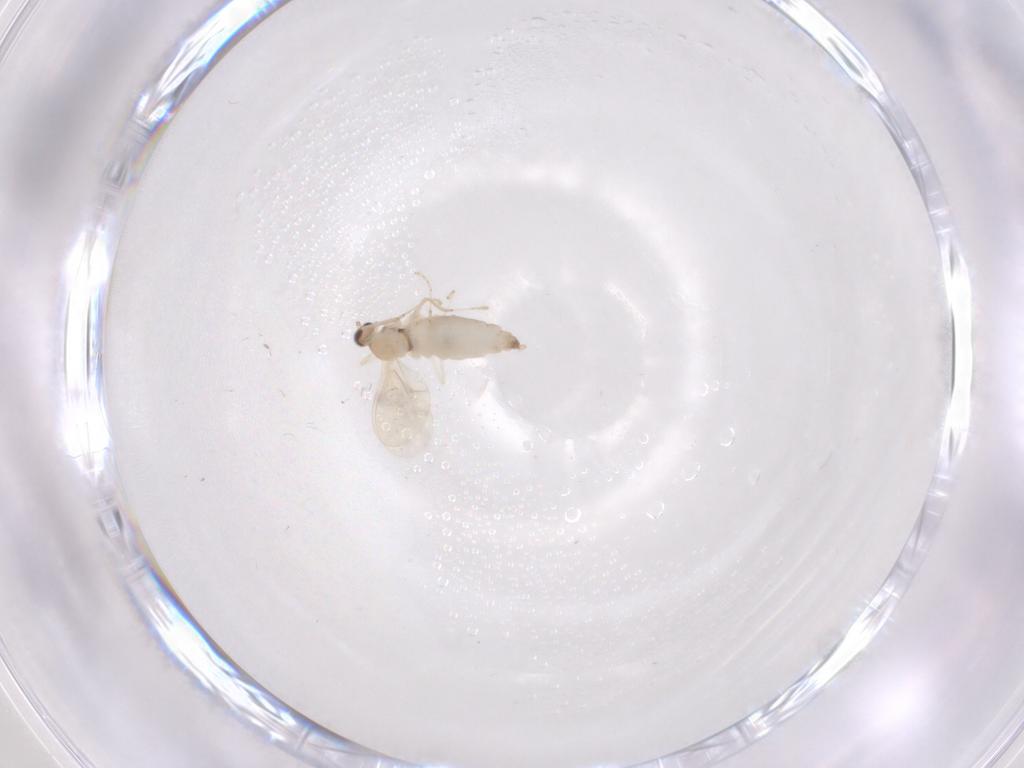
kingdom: Animalia
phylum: Arthropoda
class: Insecta
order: Diptera
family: Cecidomyiidae
